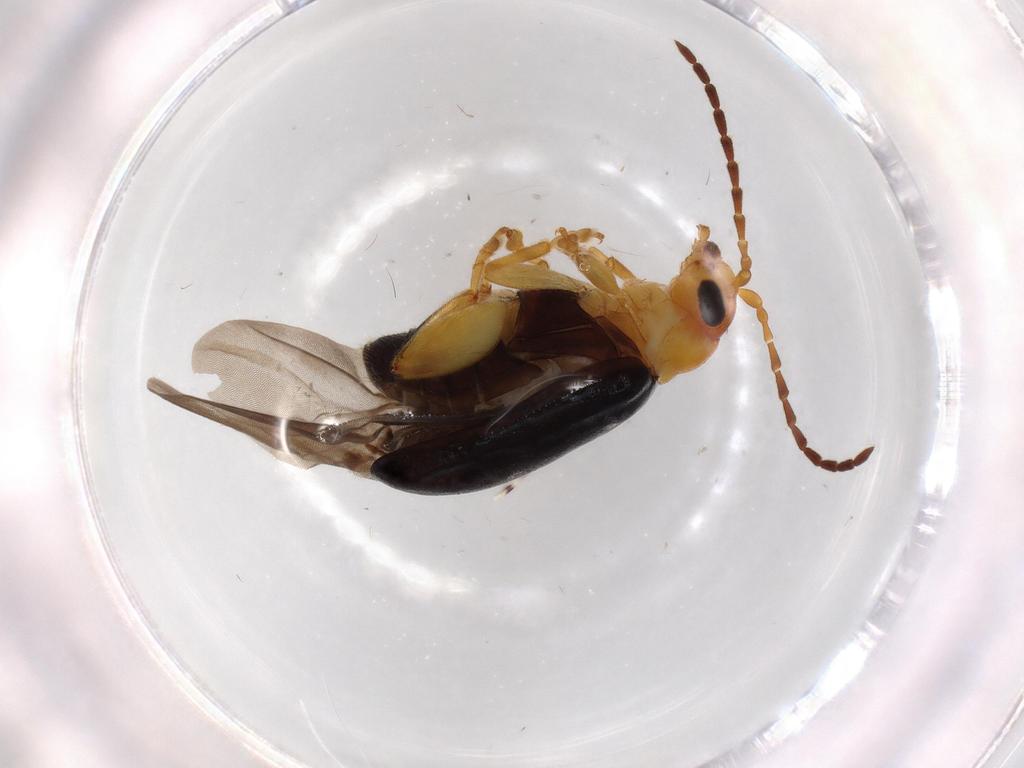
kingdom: Animalia
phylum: Arthropoda
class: Insecta
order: Coleoptera
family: Chrysomelidae
